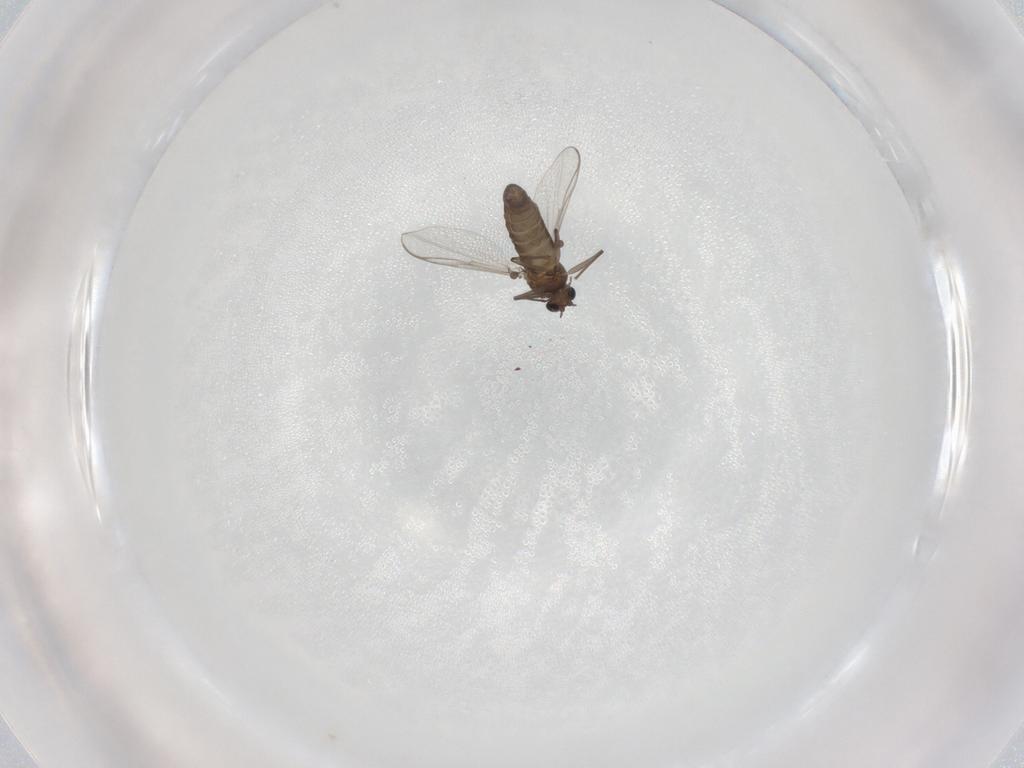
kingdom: Animalia
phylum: Arthropoda
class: Insecta
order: Diptera
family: Chironomidae
